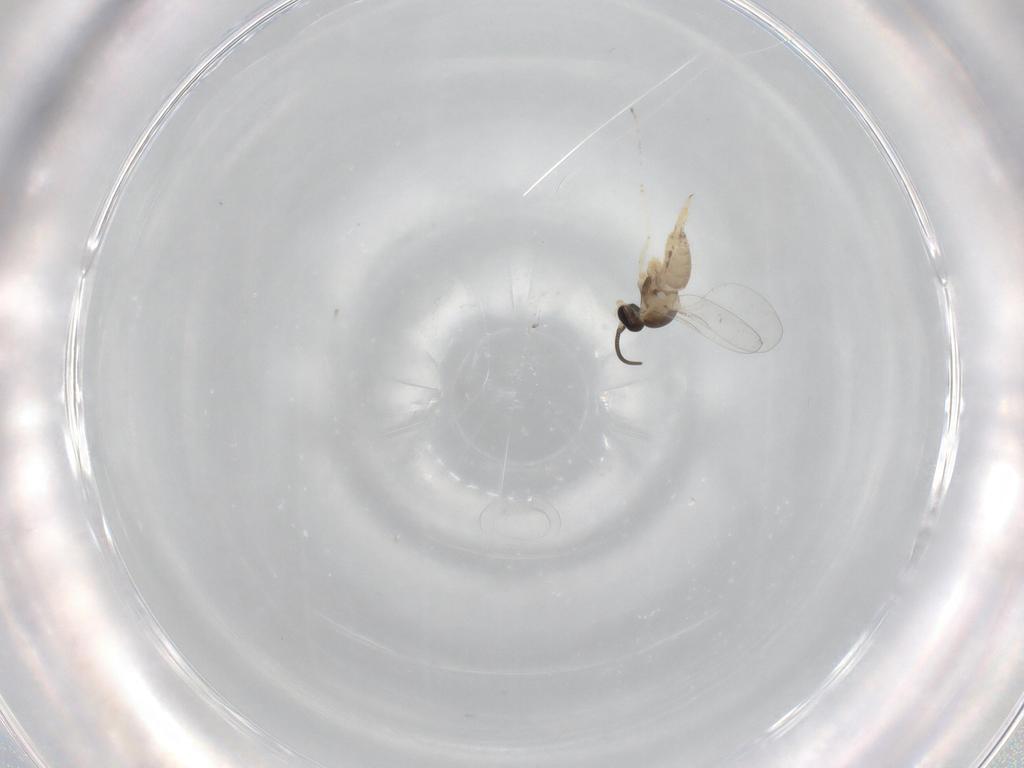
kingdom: Animalia
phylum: Arthropoda
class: Insecta
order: Diptera
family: Cecidomyiidae
